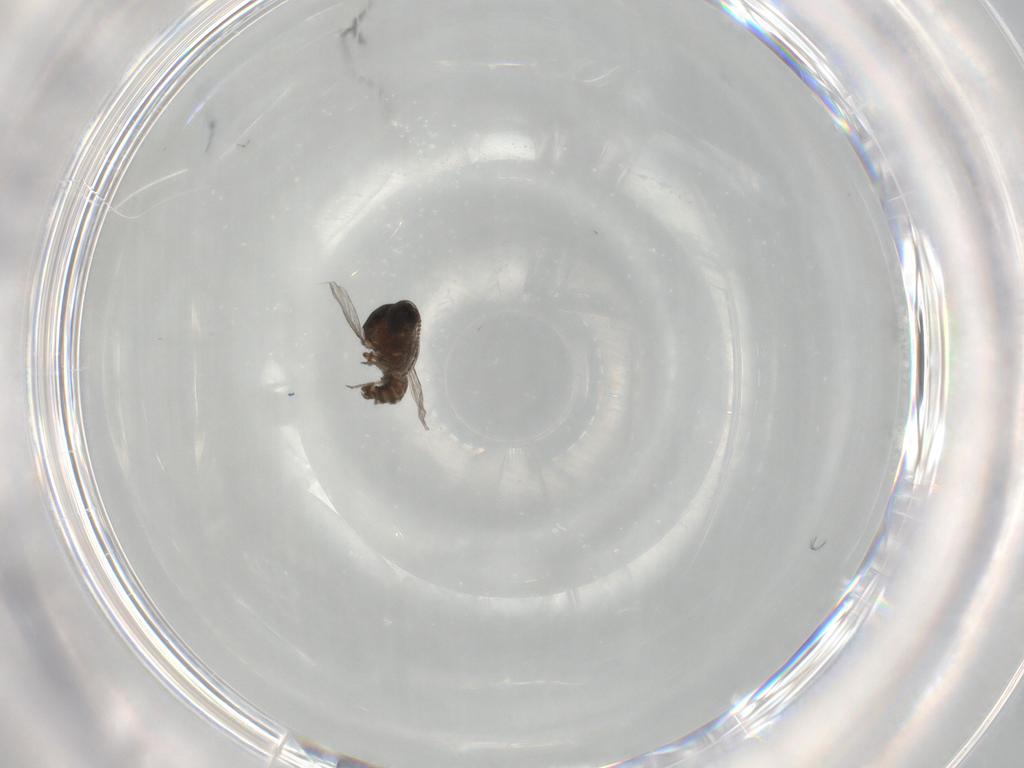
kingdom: Animalia
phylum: Arthropoda
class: Insecta
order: Diptera
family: Ceratopogonidae
